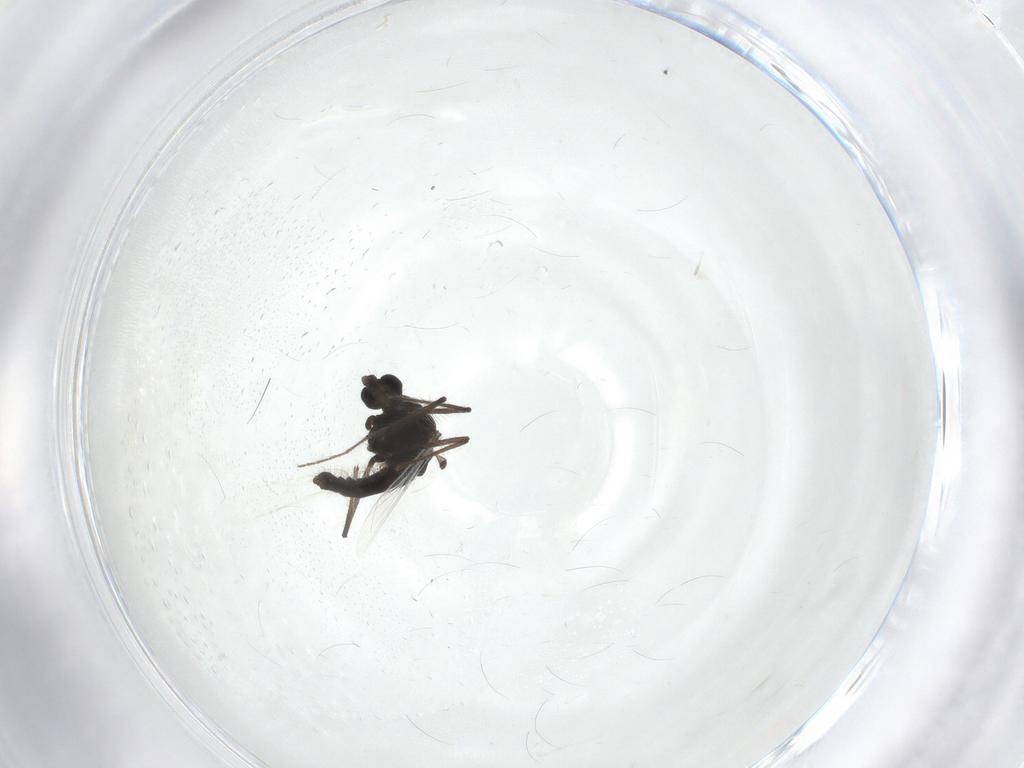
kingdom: Animalia
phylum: Arthropoda
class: Insecta
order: Diptera
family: Chironomidae
